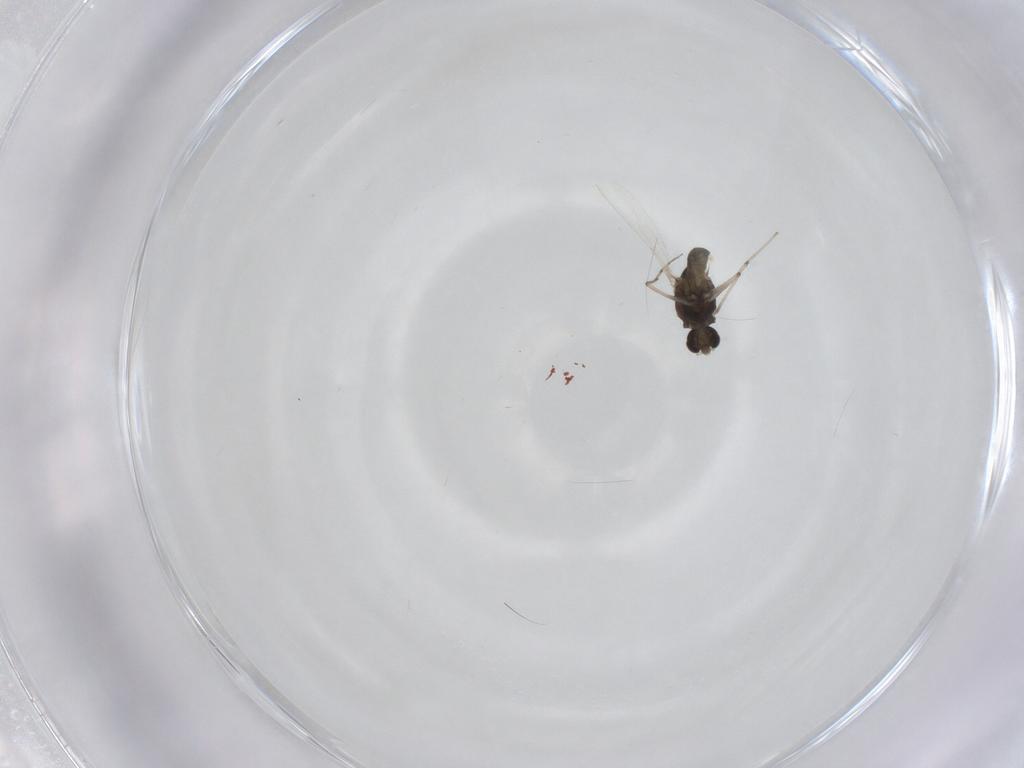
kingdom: Animalia
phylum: Arthropoda
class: Insecta
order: Diptera
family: Chironomidae
